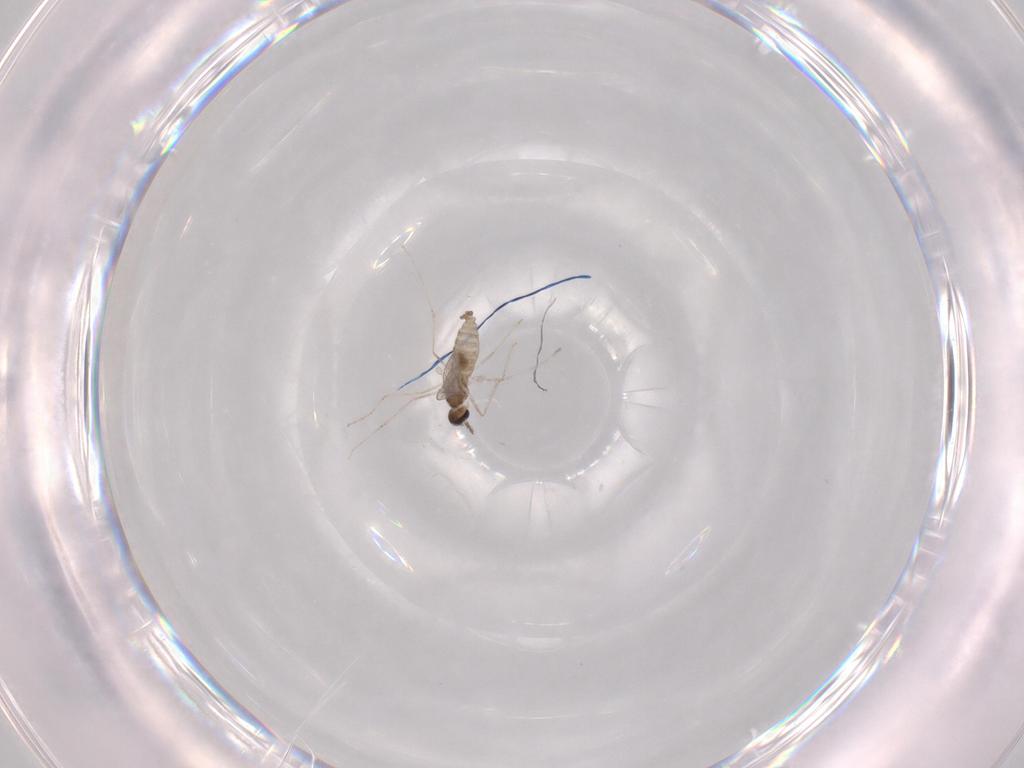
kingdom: Animalia
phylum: Arthropoda
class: Insecta
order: Diptera
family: Chloropidae
